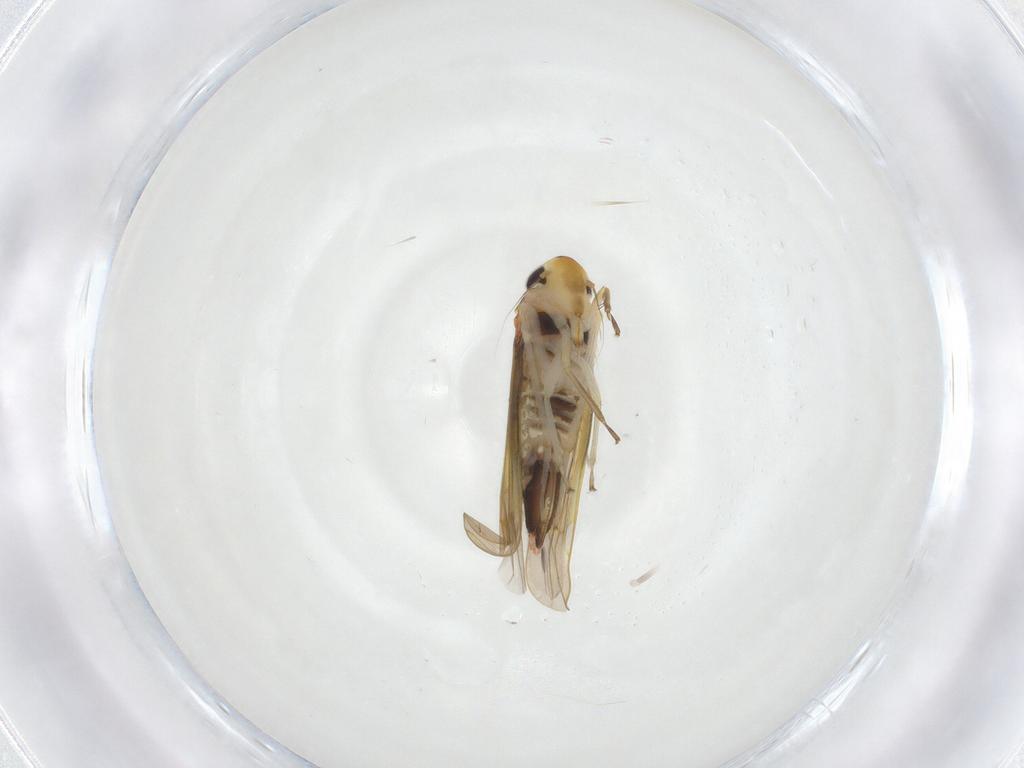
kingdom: Animalia
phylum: Arthropoda
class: Insecta
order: Hemiptera
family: Cicadellidae
